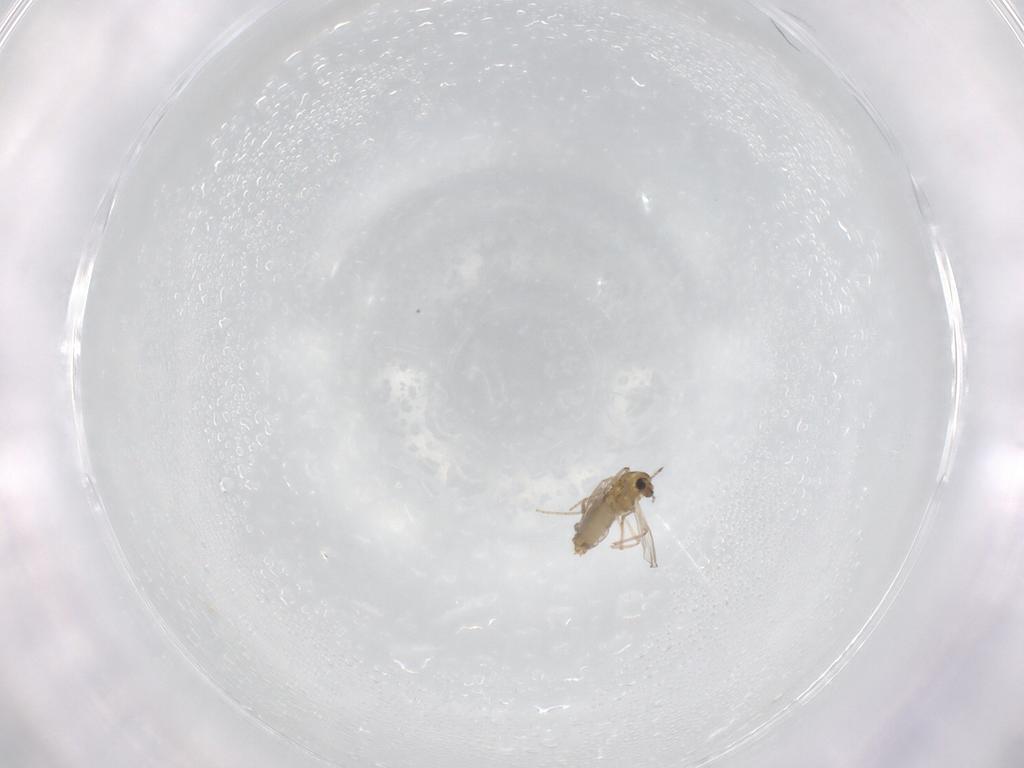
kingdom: Animalia
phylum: Arthropoda
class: Insecta
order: Diptera
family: Chironomidae
